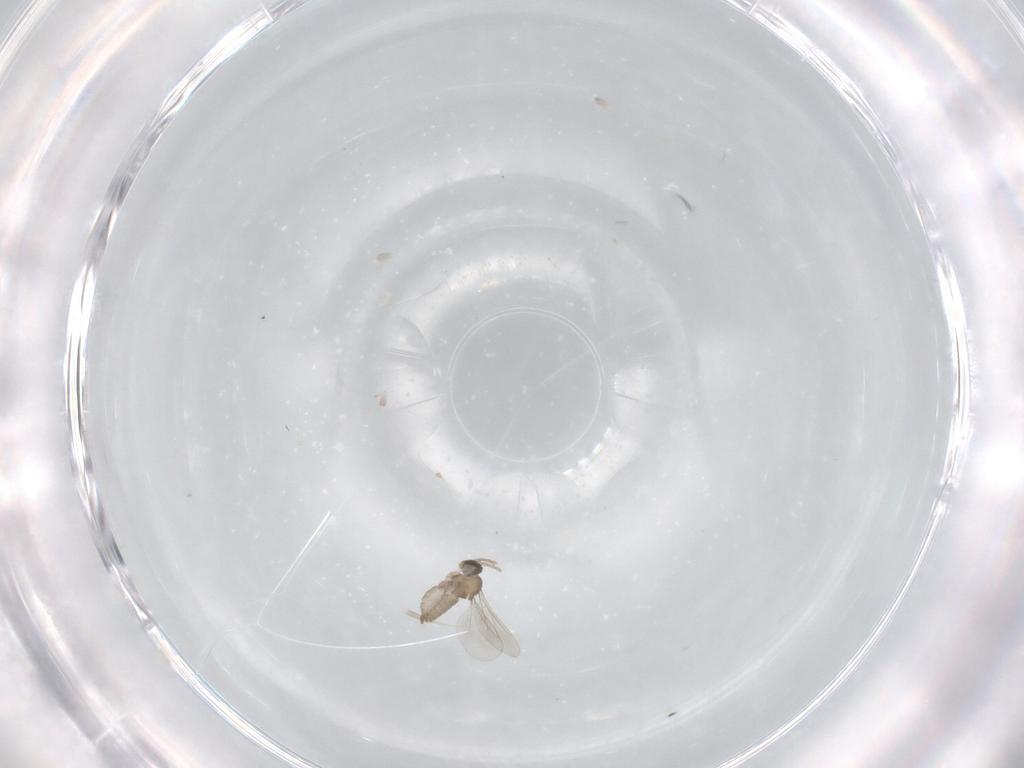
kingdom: Animalia
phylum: Arthropoda
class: Insecta
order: Diptera
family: Cecidomyiidae
